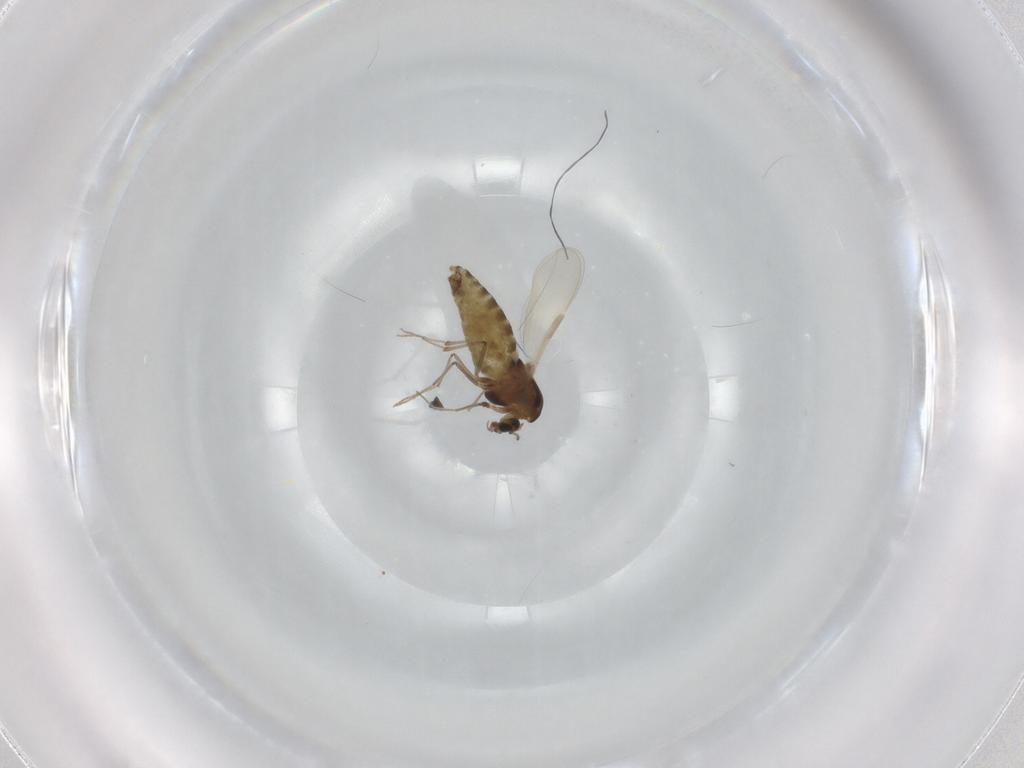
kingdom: Animalia
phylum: Arthropoda
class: Insecta
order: Diptera
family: Chironomidae
